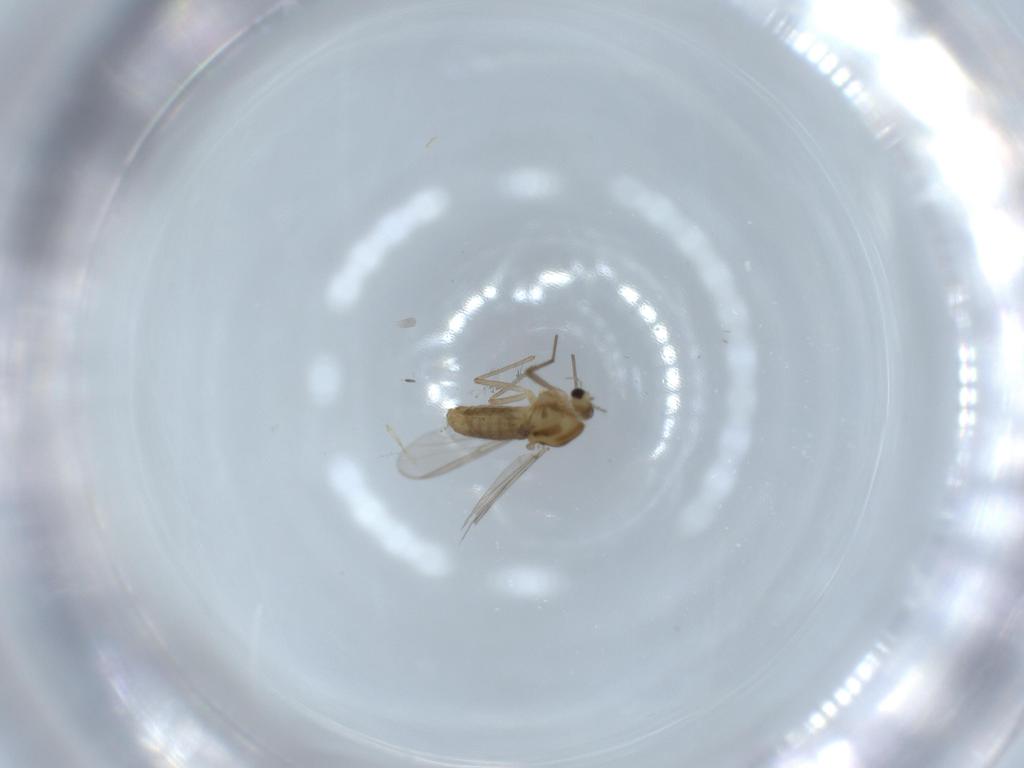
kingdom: Animalia
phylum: Arthropoda
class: Insecta
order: Diptera
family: Chironomidae
